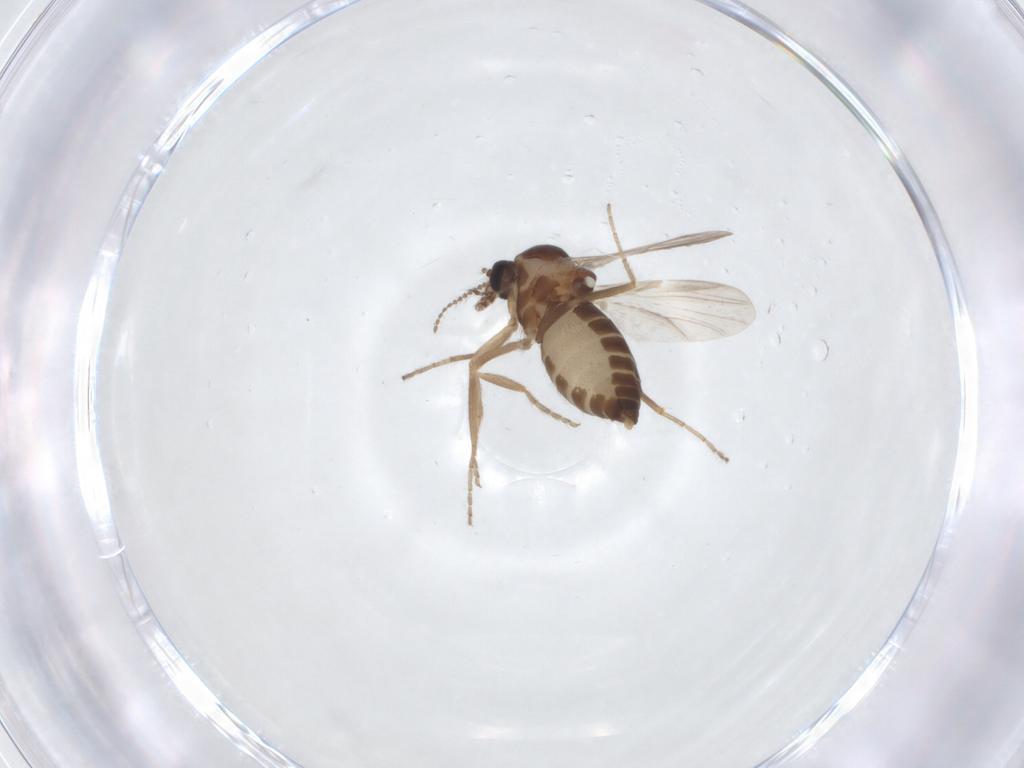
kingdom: Animalia
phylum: Arthropoda
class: Insecta
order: Diptera
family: Ceratopogonidae
